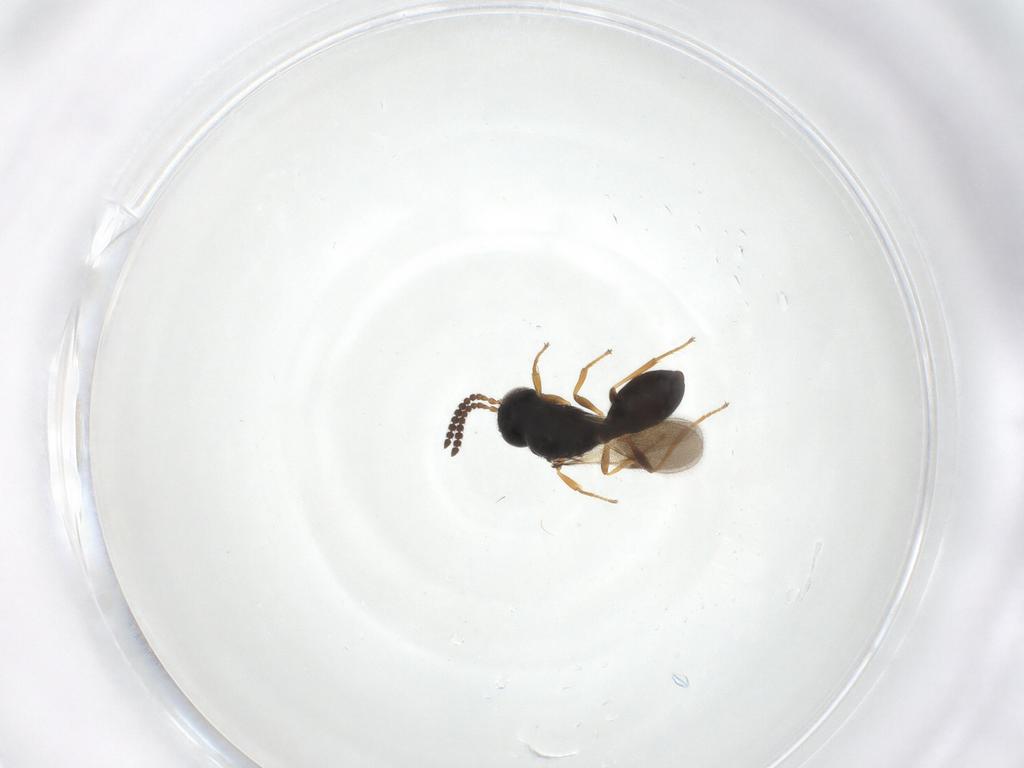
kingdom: Animalia
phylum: Arthropoda
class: Insecta
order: Hymenoptera
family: Scelionidae
